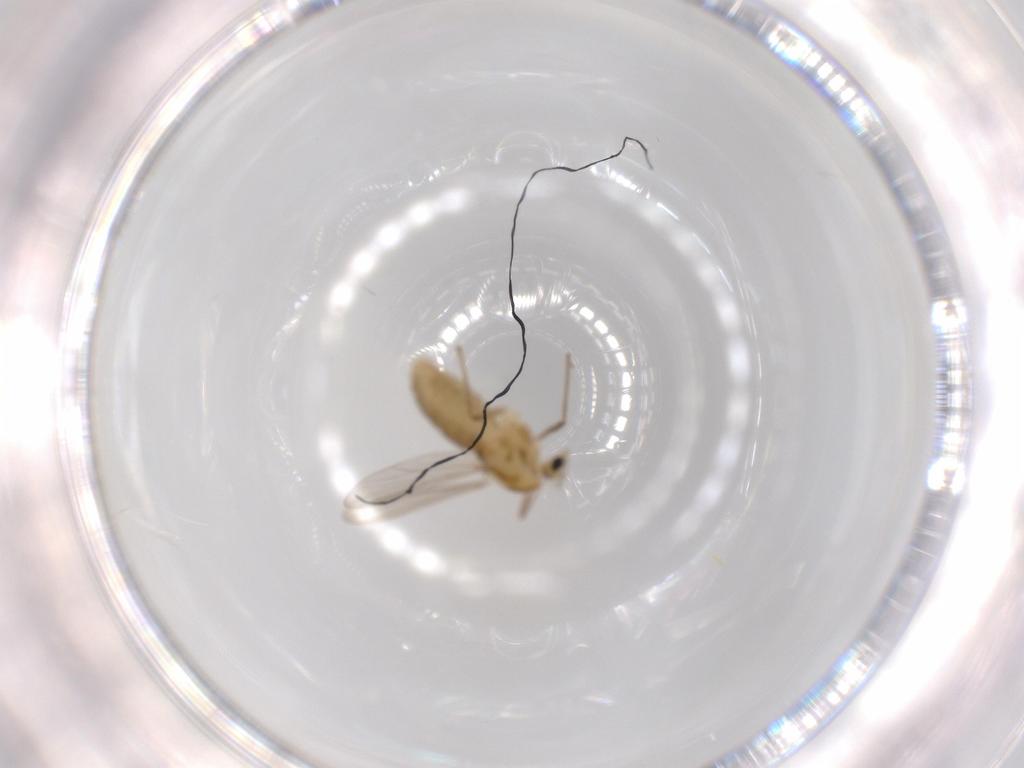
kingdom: Animalia
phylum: Arthropoda
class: Insecta
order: Diptera
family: Chironomidae
